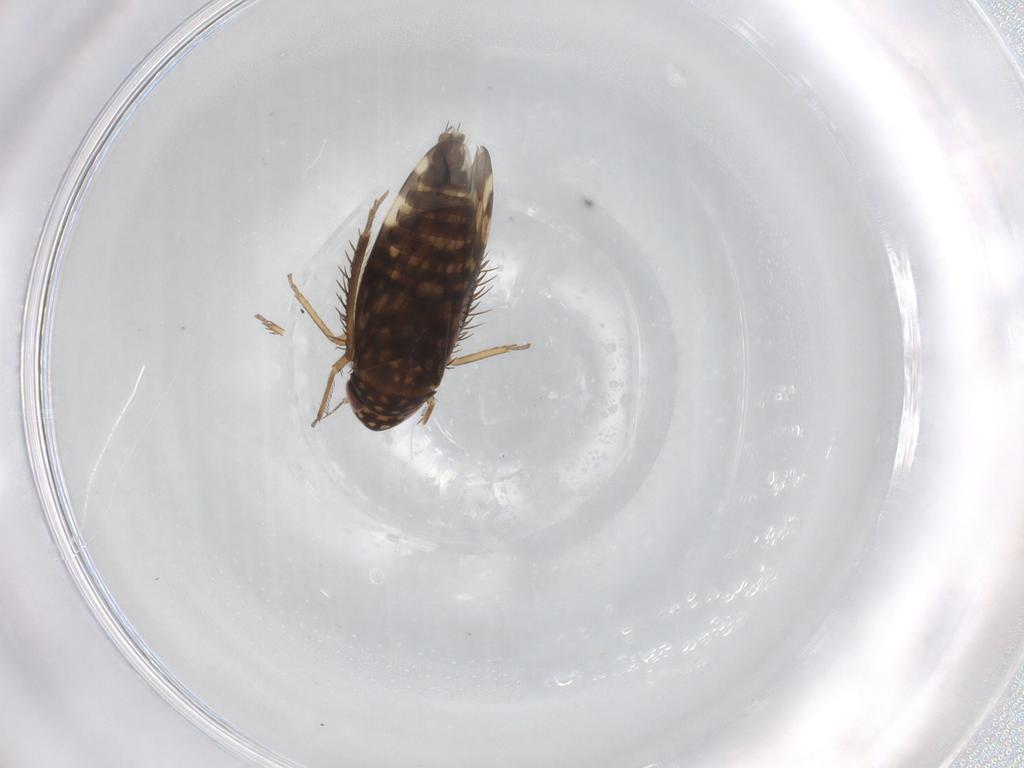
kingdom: Animalia
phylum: Arthropoda
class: Insecta
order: Hemiptera
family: Cicadellidae
